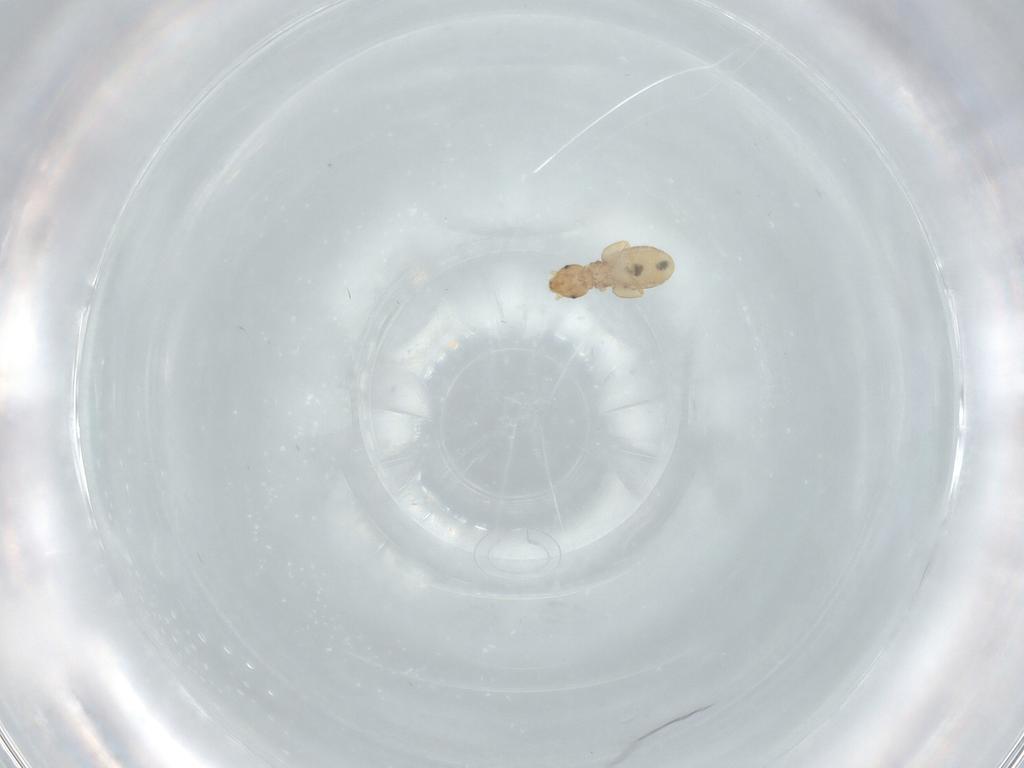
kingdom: Animalia
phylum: Arthropoda
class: Insecta
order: Psocodea
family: Liposcelididae
